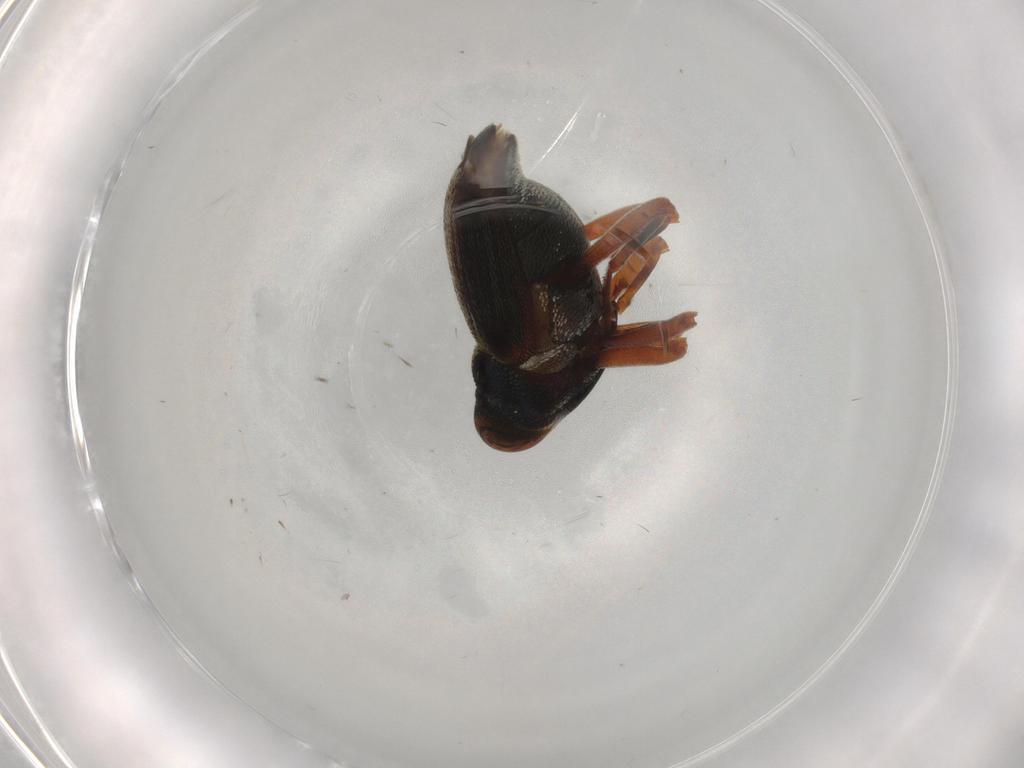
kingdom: Animalia
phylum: Arthropoda
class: Insecta
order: Coleoptera
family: Curculionidae
